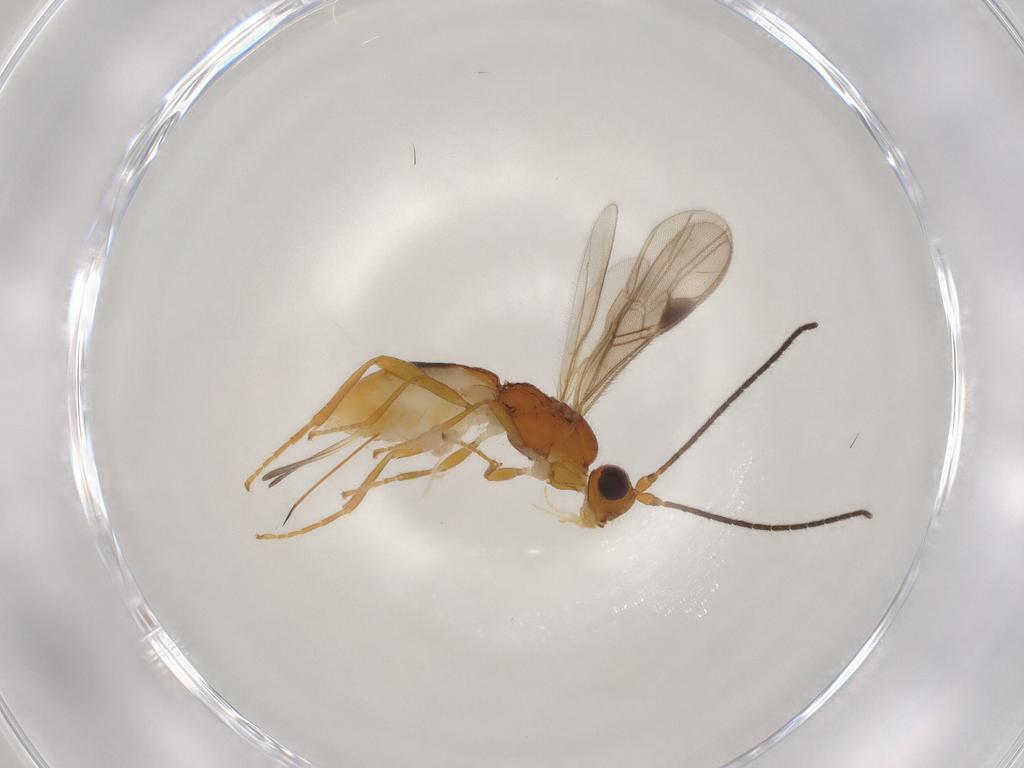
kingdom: Animalia
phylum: Arthropoda
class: Insecta
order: Hymenoptera
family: Braconidae
